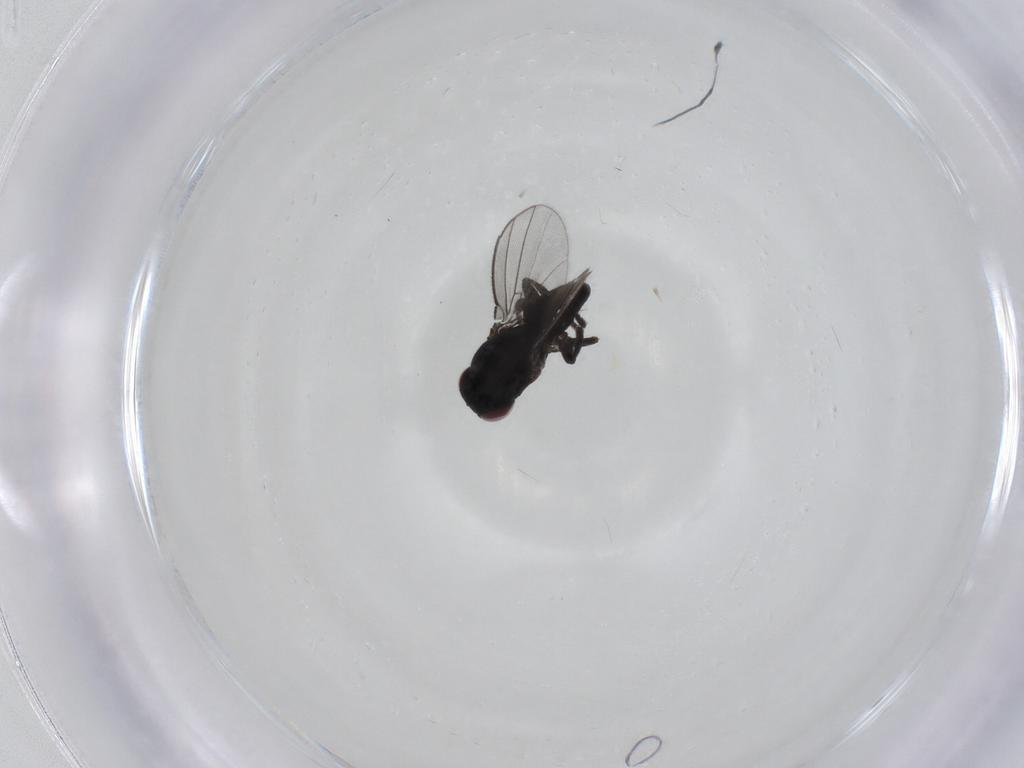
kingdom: Animalia
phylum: Arthropoda
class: Insecta
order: Diptera
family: Milichiidae
